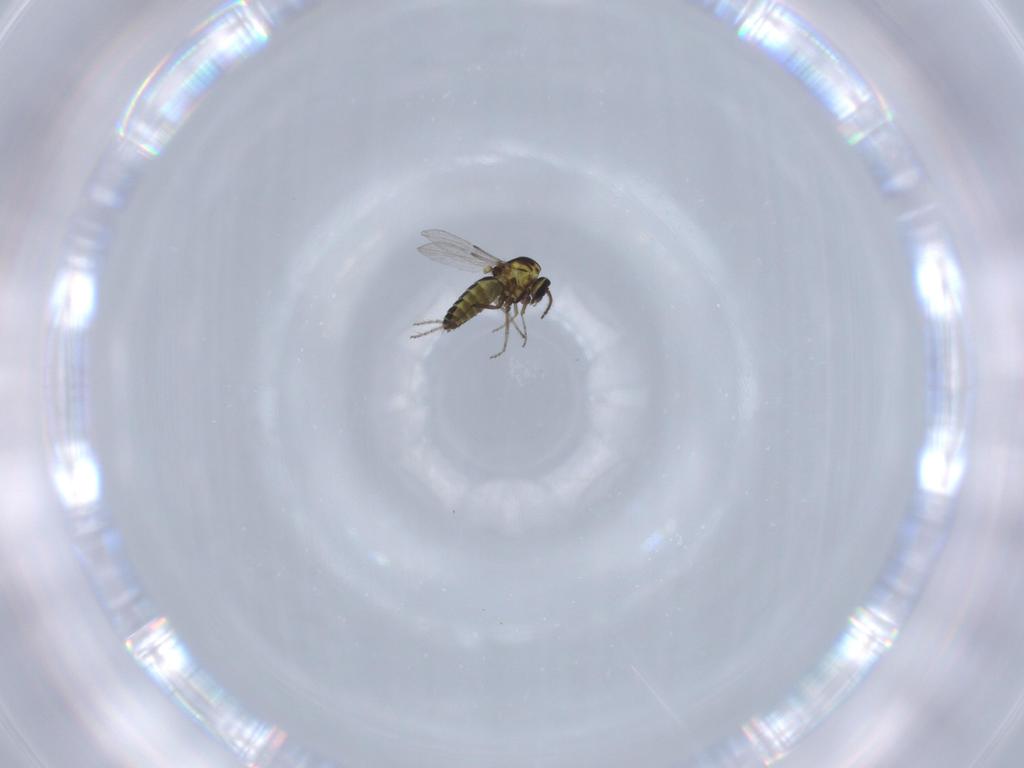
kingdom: Animalia
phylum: Arthropoda
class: Insecta
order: Diptera
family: Ceratopogonidae
